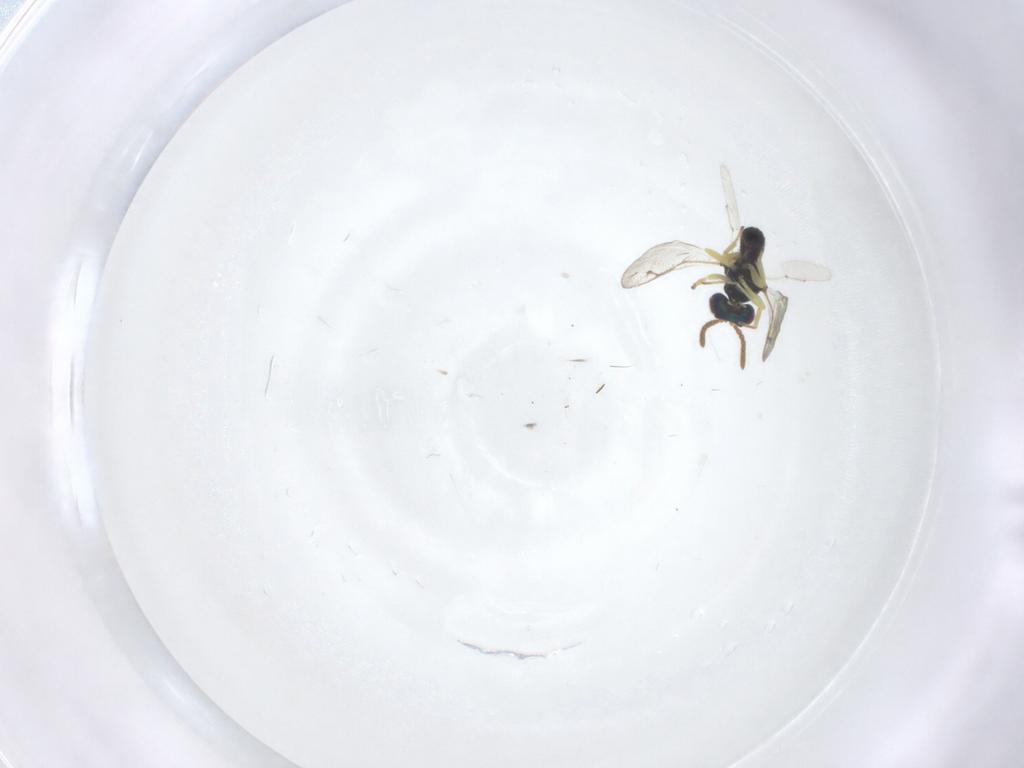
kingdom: Animalia
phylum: Arthropoda
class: Insecta
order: Hymenoptera
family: Pteromalidae
